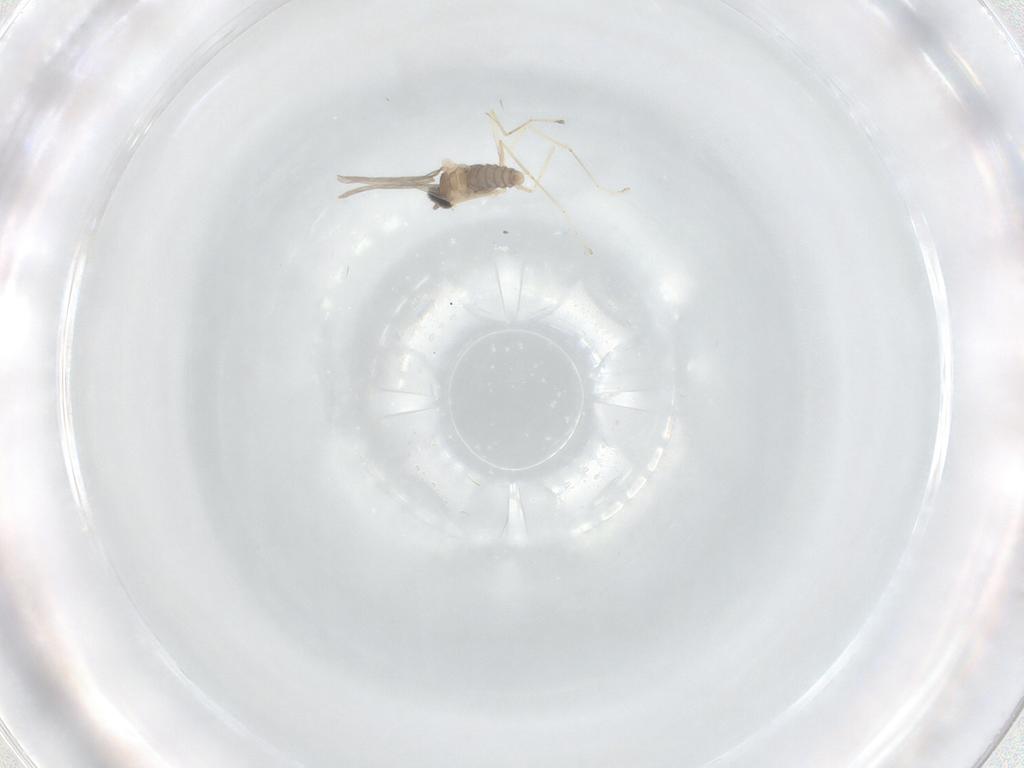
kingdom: Animalia
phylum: Arthropoda
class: Insecta
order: Diptera
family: Cecidomyiidae
